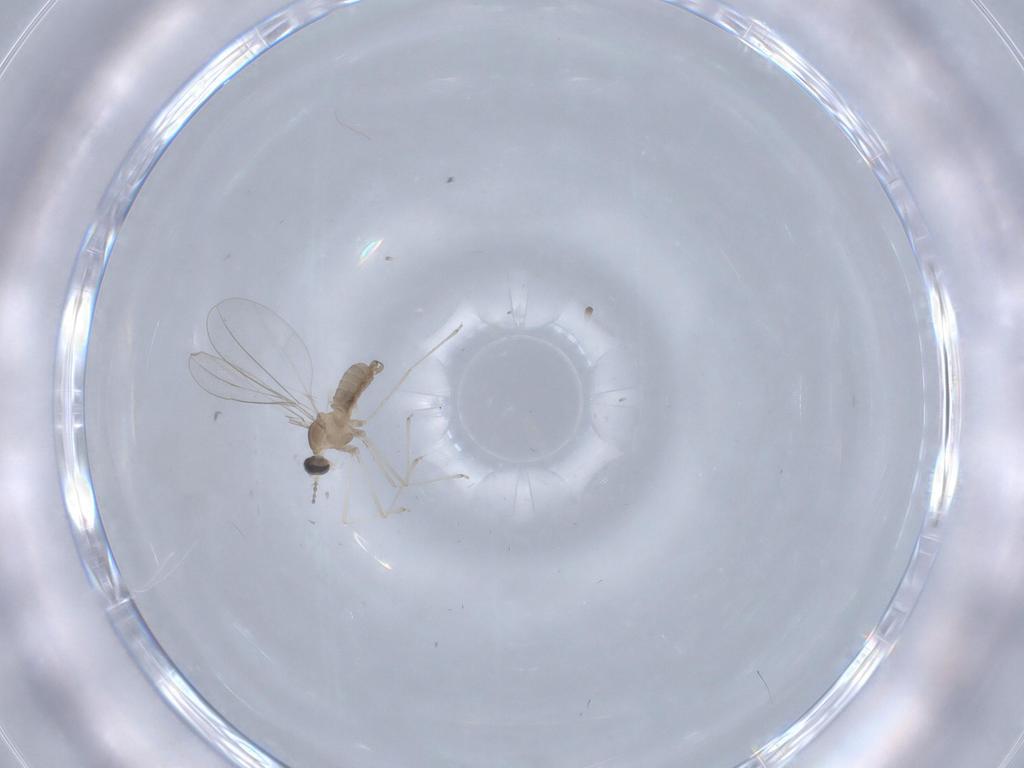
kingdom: Animalia
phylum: Arthropoda
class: Insecta
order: Diptera
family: Cecidomyiidae
